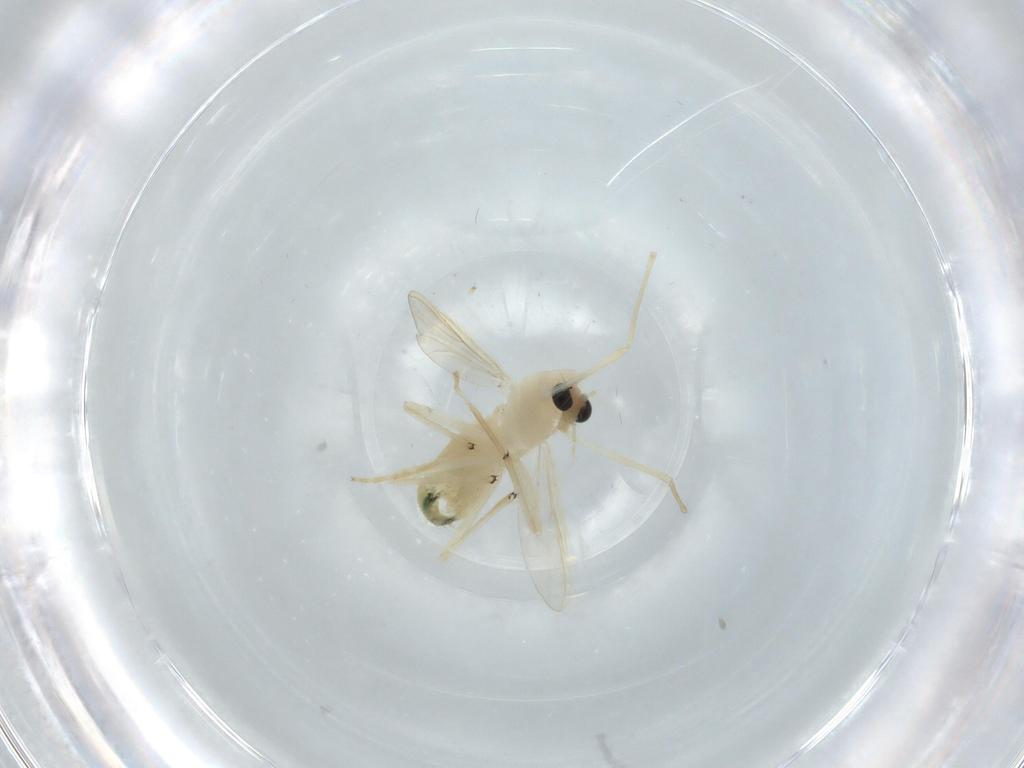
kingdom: Animalia
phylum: Arthropoda
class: Insecta
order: Diptera
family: Chironomidae
